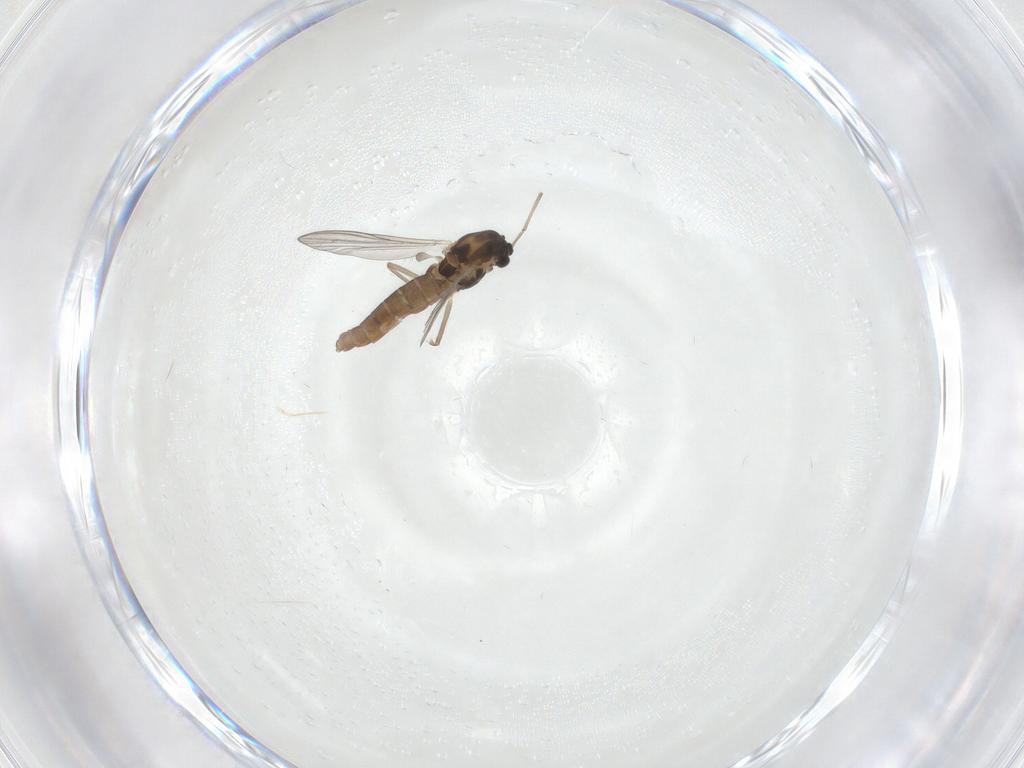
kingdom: Animalia
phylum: Arthropoda
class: Insecta
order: Diptera
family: Chironomidae
